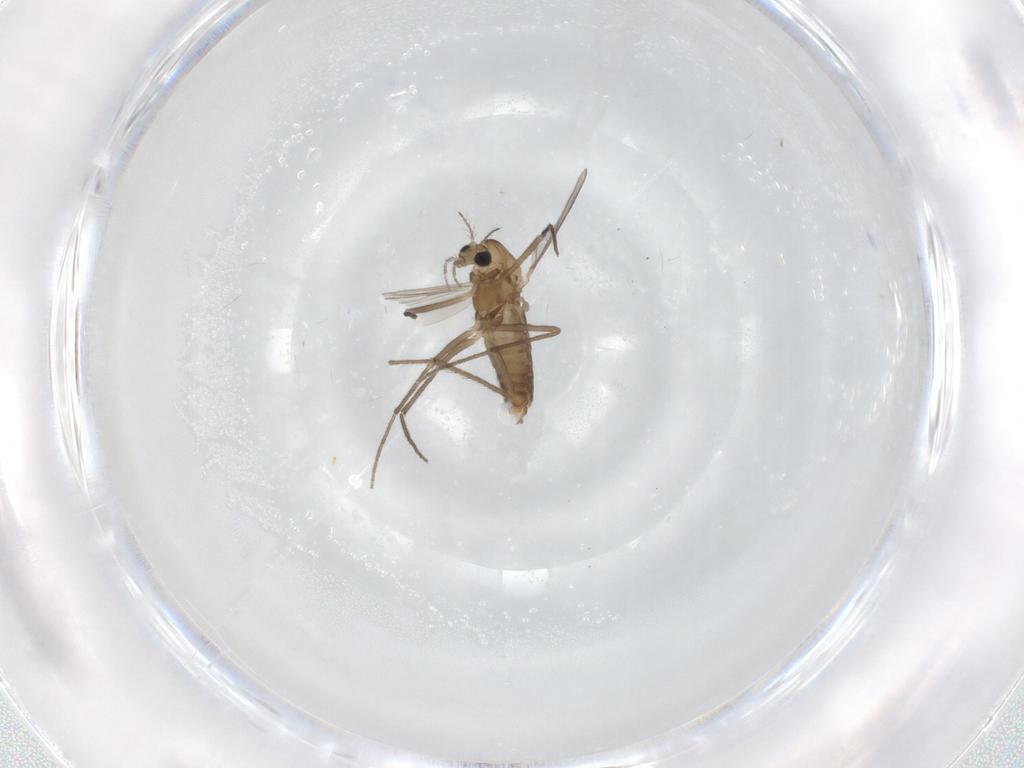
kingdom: Animalia
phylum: Arthropoda
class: Insecta
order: Diptera
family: Chironomidae
